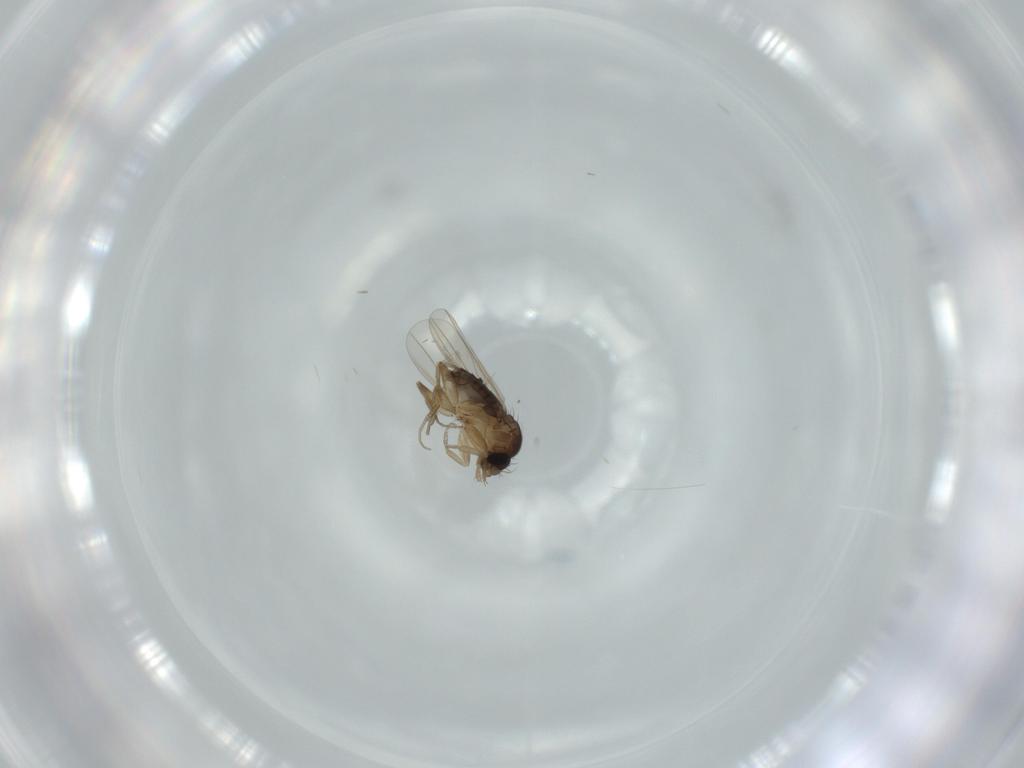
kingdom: Animalia
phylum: Arthropoda
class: Insecta
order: Diptera
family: Phoridae
